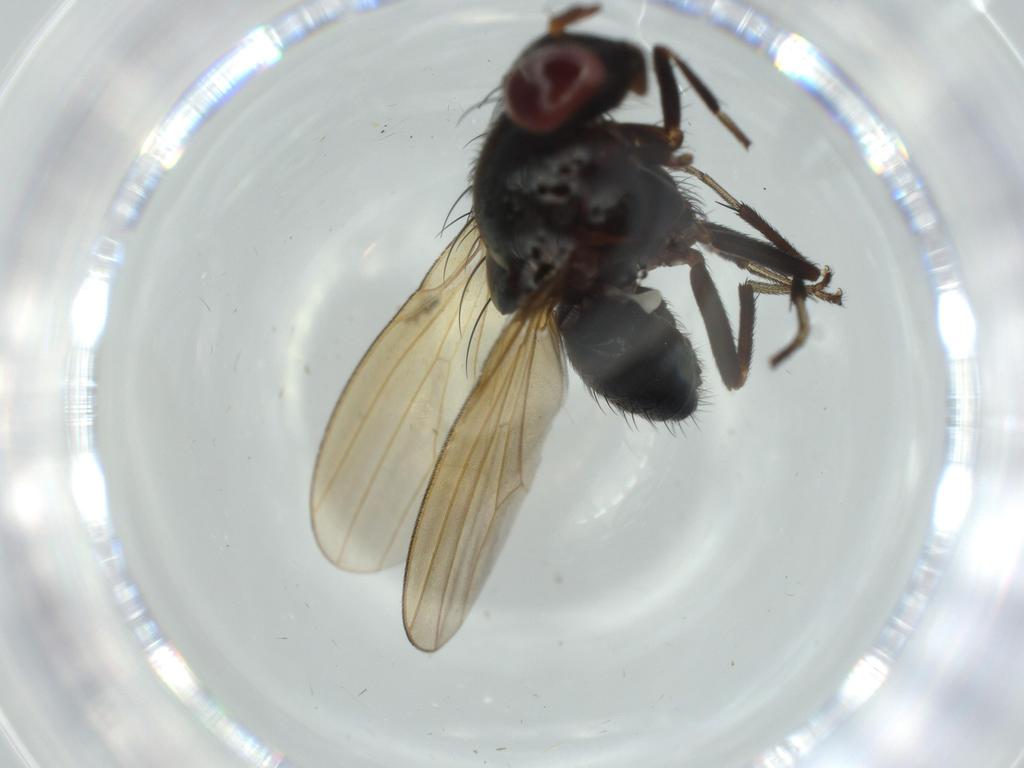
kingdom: Animalia
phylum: Arthropoda
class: Insecta
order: Diptera
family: Lauxaniidae
